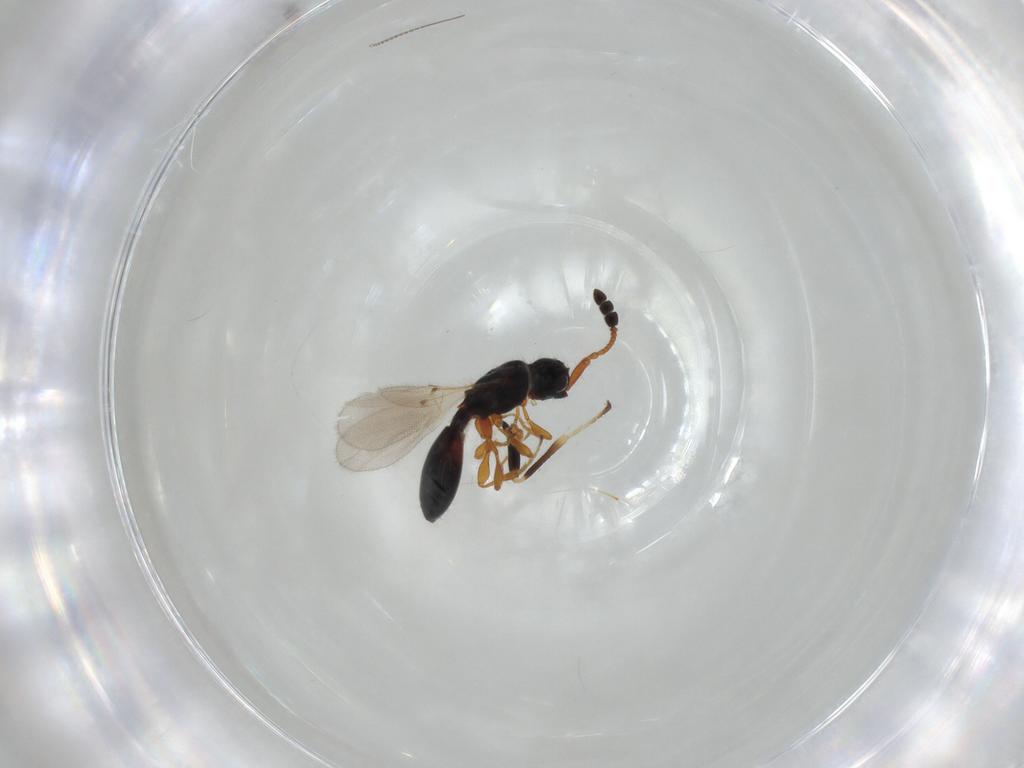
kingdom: Animalia
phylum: Arthropoda
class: Insecta
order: Hymenoptera
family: Diapriidae
